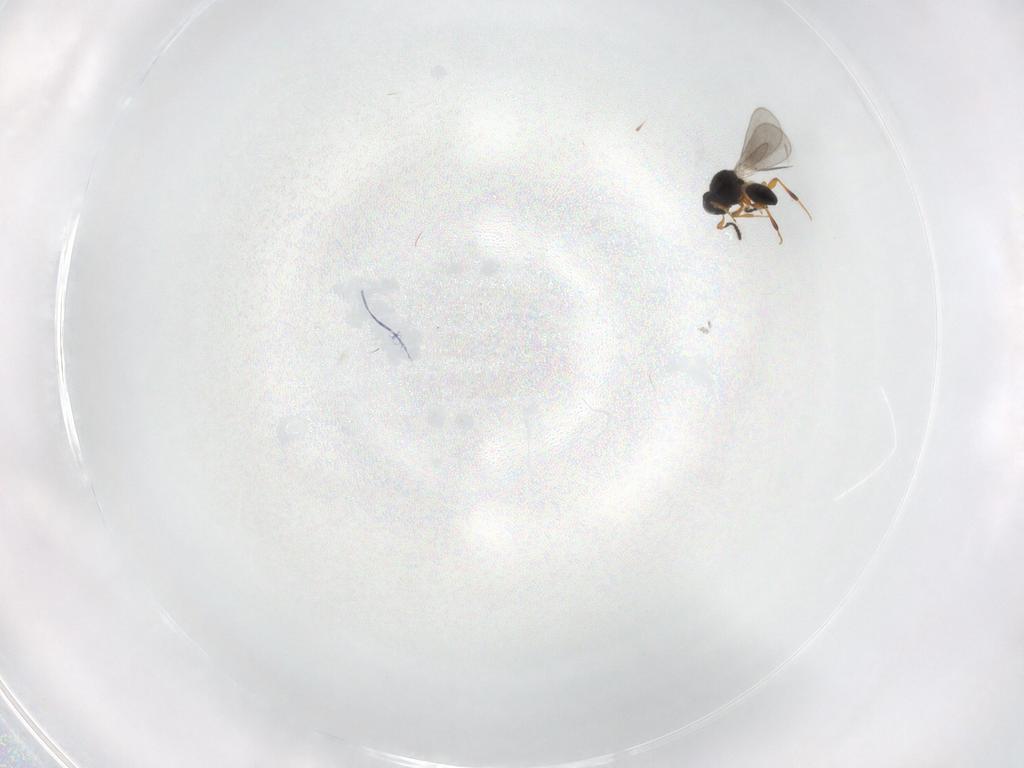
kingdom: Animalia
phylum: Arthropoda
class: Insecta
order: Hymenoptera
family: Platygastridae
